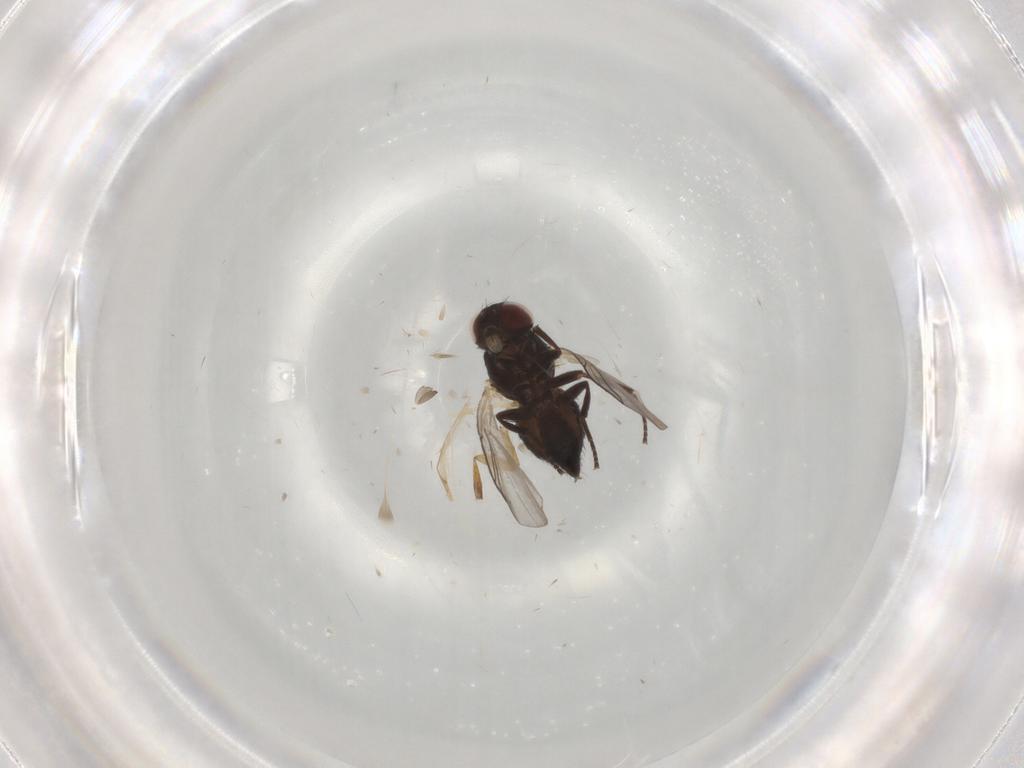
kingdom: Animalia
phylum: Arthropoda
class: Insecta
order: Diptera
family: Chaoboridae
